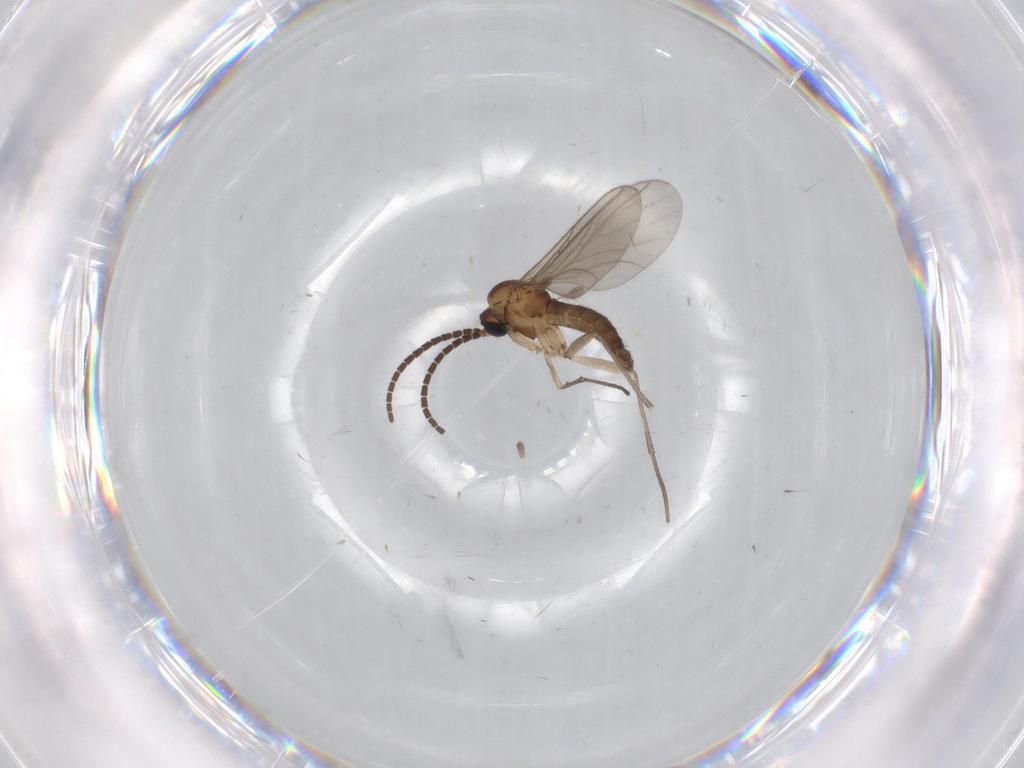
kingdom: Animalia
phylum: Arthropoda
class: Insecta
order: Diptera
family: Sciaridae
